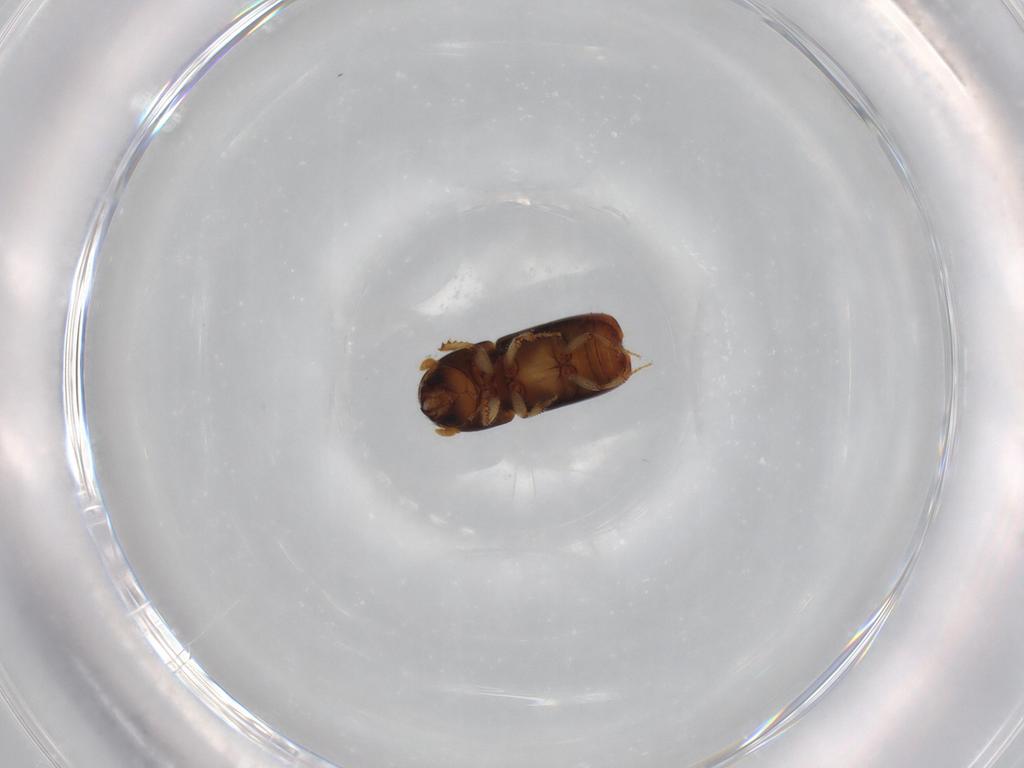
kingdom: Animalia
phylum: Arthropoda
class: Insecta
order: Coleoptera
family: Curculionidae
